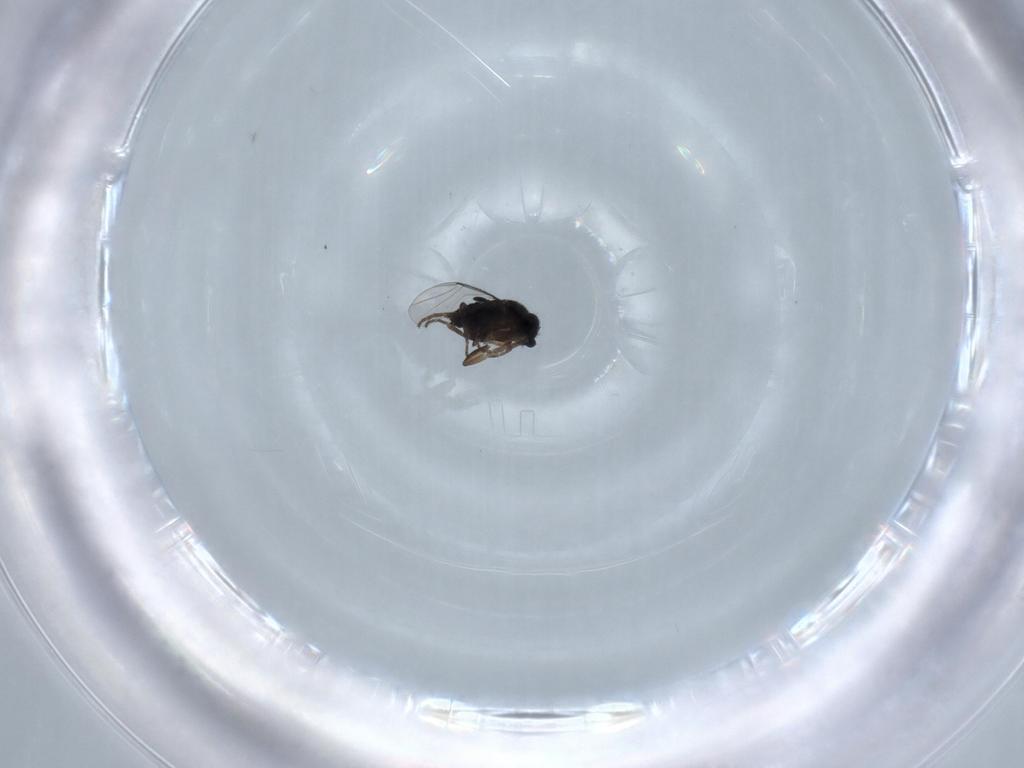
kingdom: Animalia
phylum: Arthropoda
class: Insecta
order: Diptera
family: Phoridae
